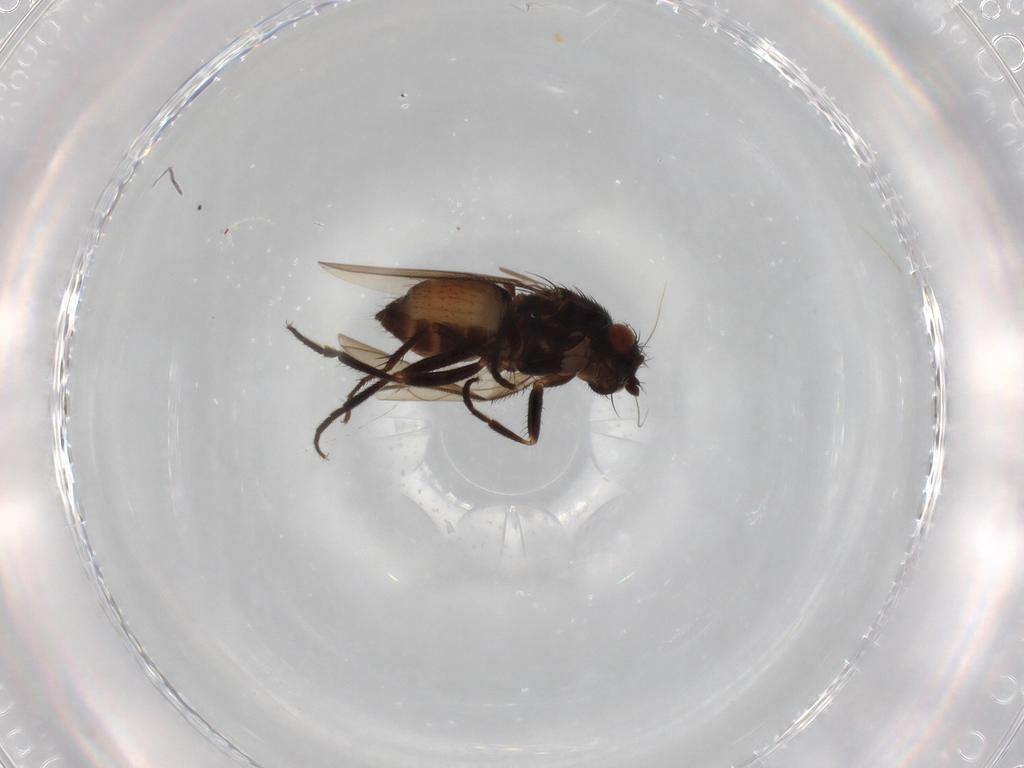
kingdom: Animalia
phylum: Arthropoda
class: Insecta
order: Diptera
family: Sphaeroceridae
